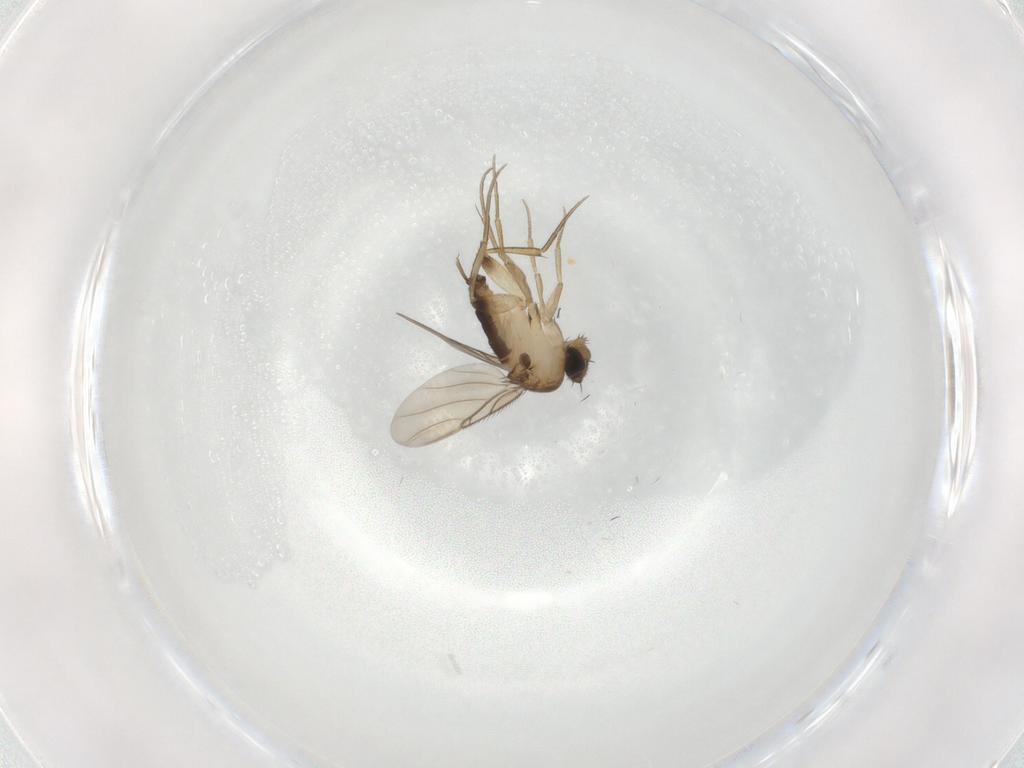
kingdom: Animalia
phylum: Arthropoda
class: Insecta
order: Diptera
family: Phoridae
